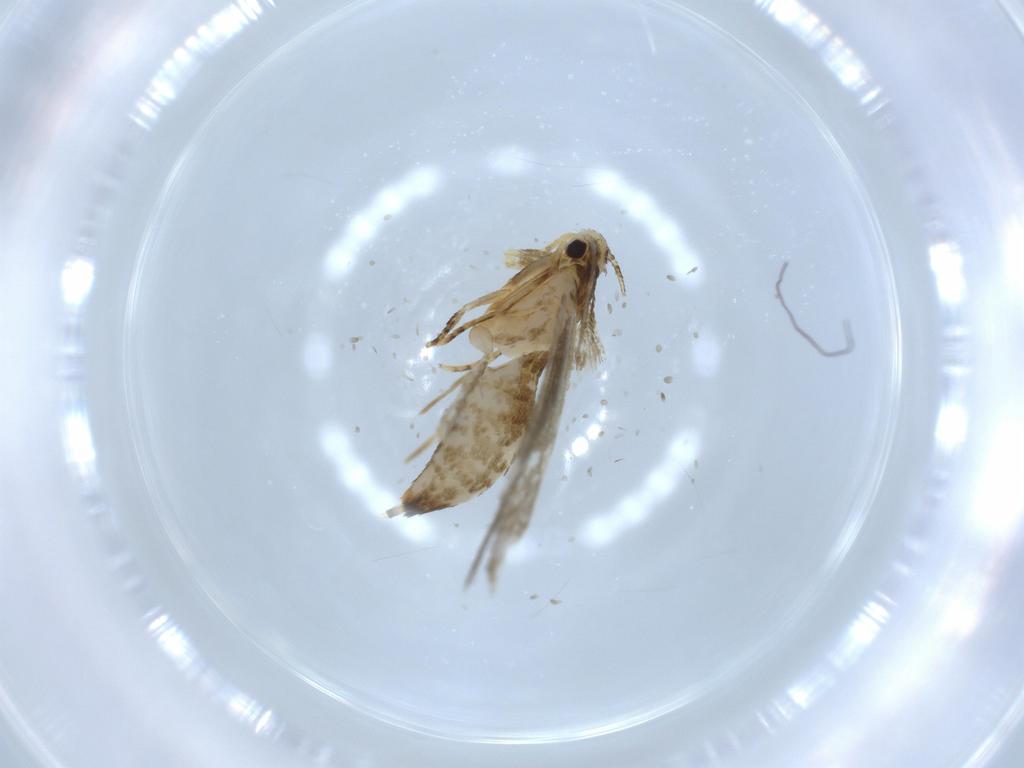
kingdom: Animalia
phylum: Arthropoda
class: Insecta
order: Lepidoptera
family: Tineidae
